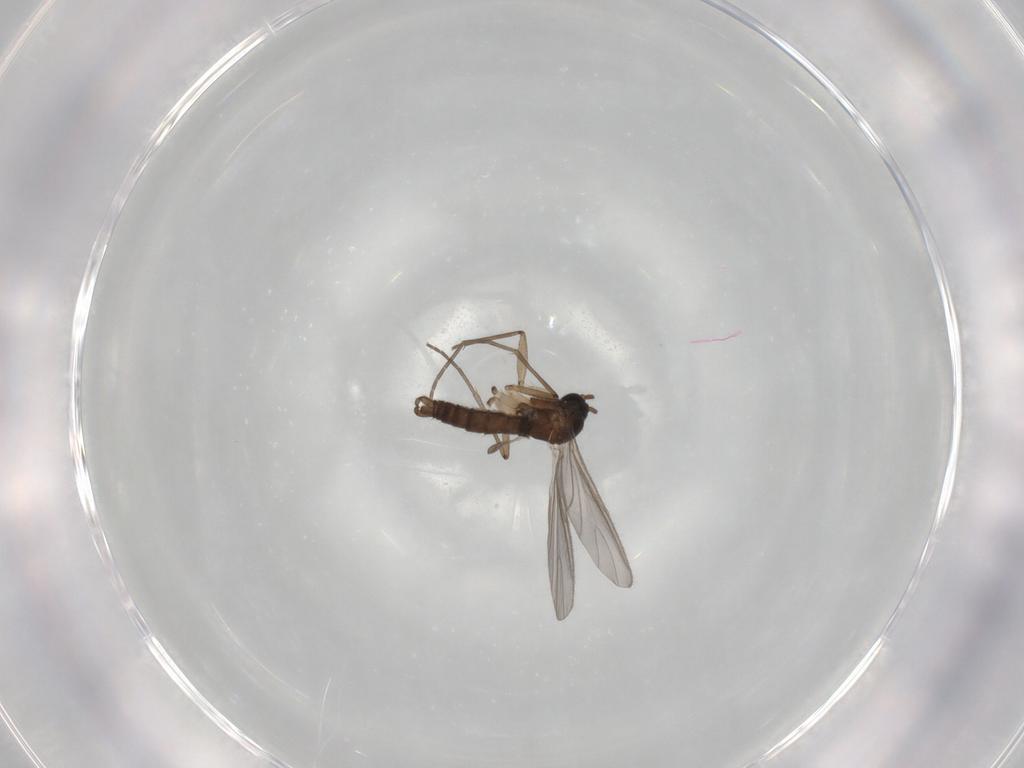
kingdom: Animalia
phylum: Arthropoda
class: Insecta
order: Diptera
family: Sciaridae
